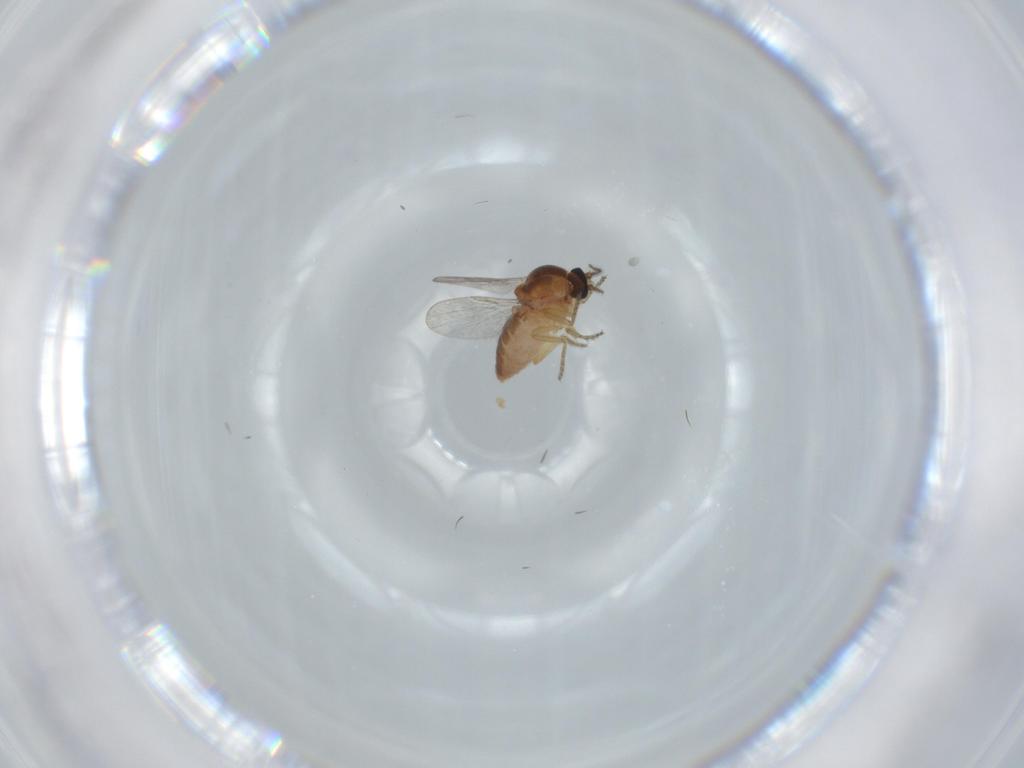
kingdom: Animalia
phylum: Arthropoda
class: Insecta
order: Diptera
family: Ceratopogonidae
